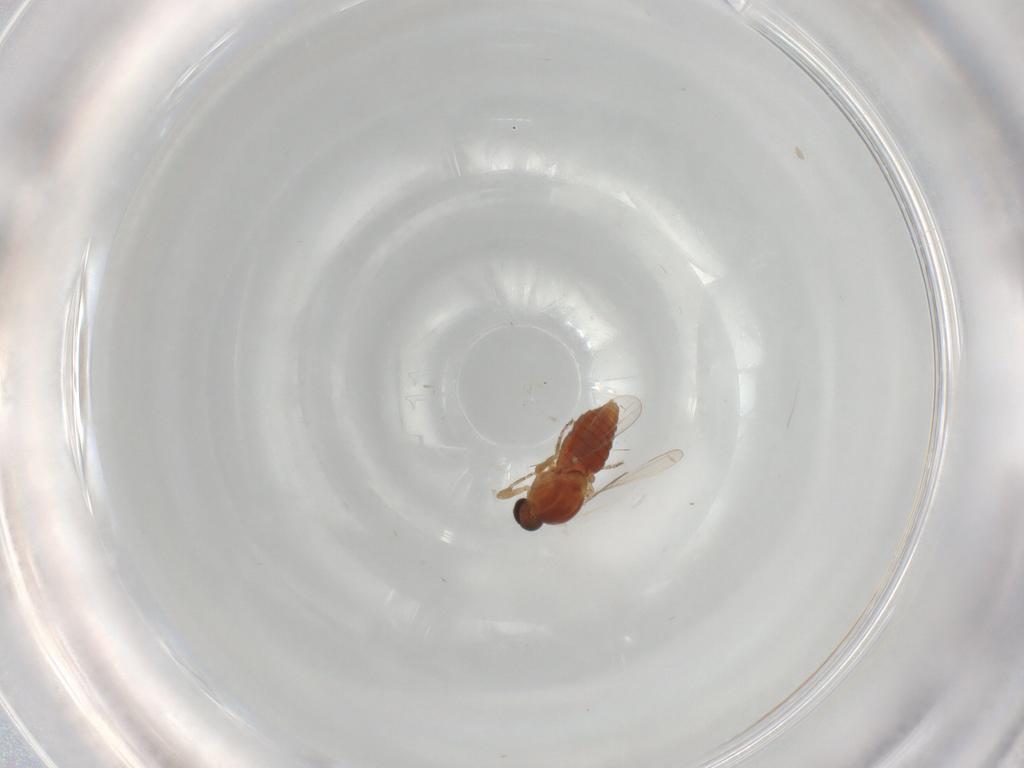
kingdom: Animalia
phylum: Arthropoda
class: Insecta
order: Diptera
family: Ceratopogonidae
